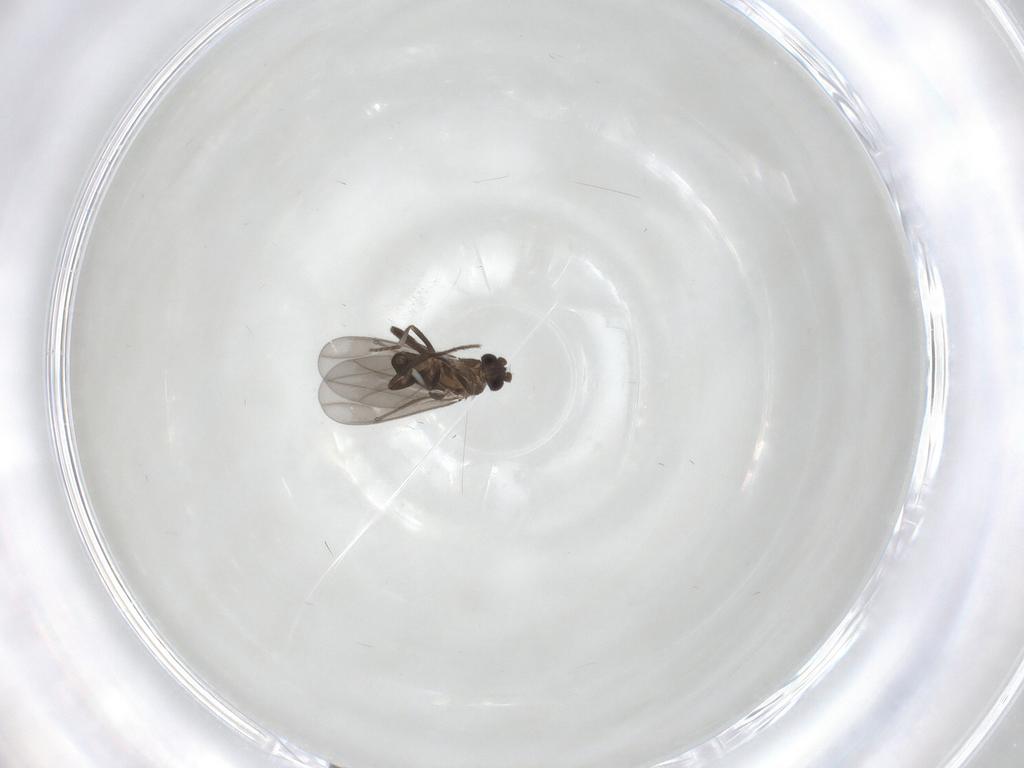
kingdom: Animalia
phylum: Arthropoda
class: Insecta
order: Diptera
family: Phoridae
